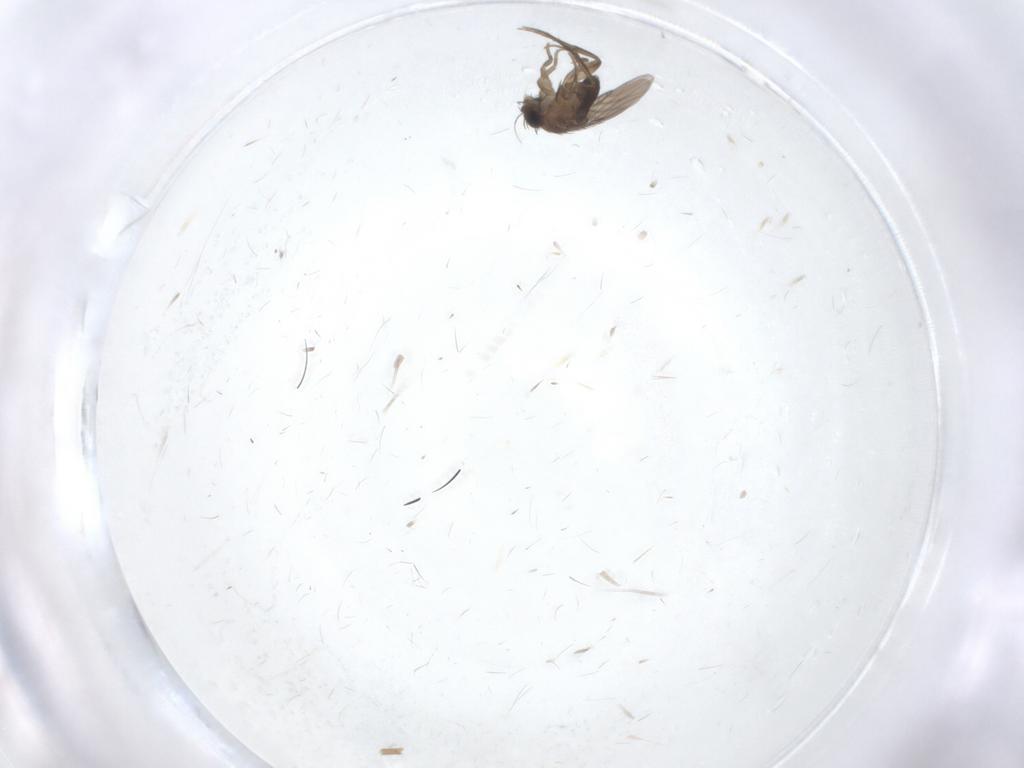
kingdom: Animalia
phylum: Arthropoda
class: Insecta
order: Diptera
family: Phoridae
